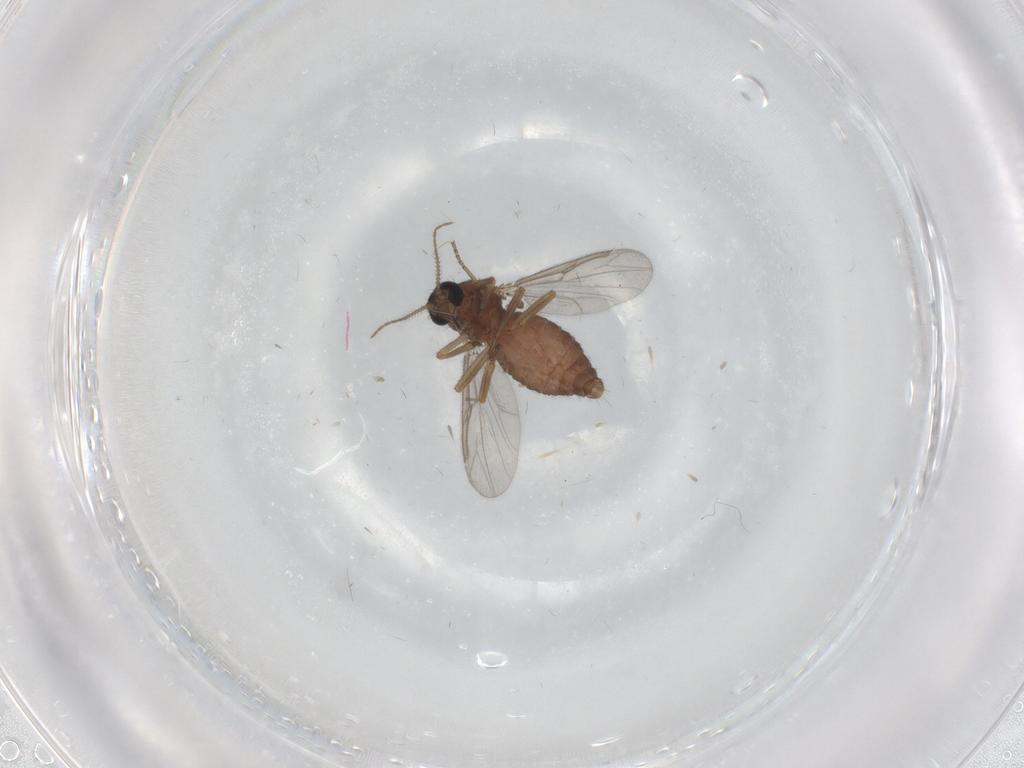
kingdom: Animalia
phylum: Arthropoda
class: Insecta
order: Diptera
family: Ceratopogonidae
